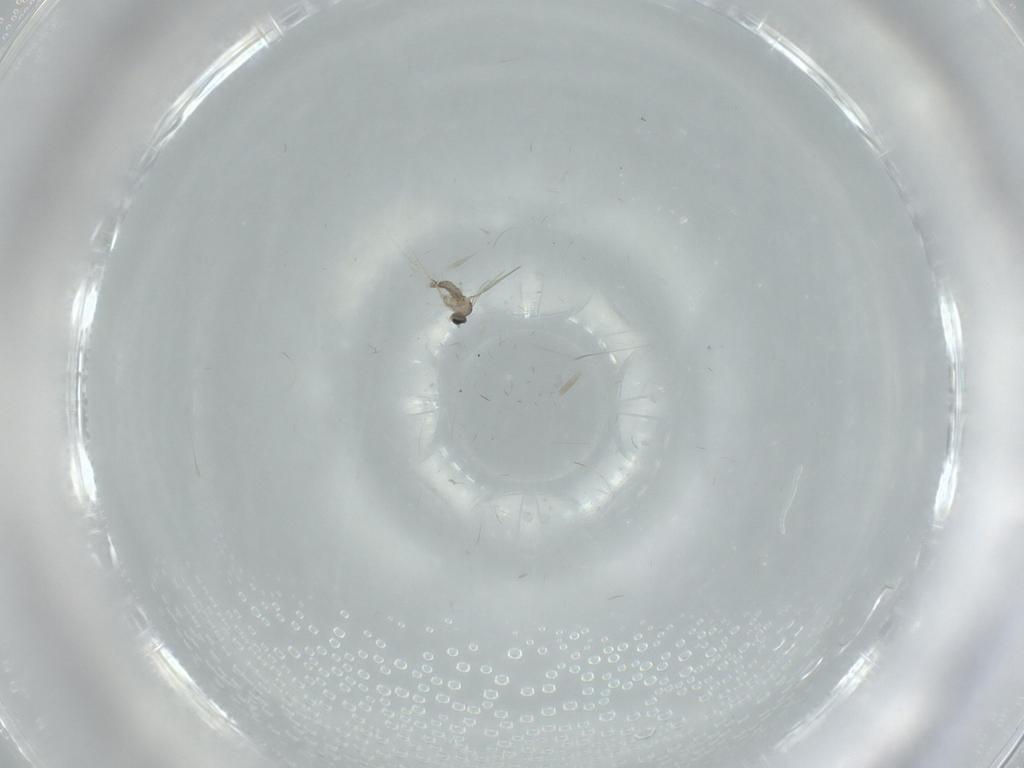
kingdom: Animalia
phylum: Arthropoda
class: Insecta
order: Diptera
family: Cecidomyiidae
